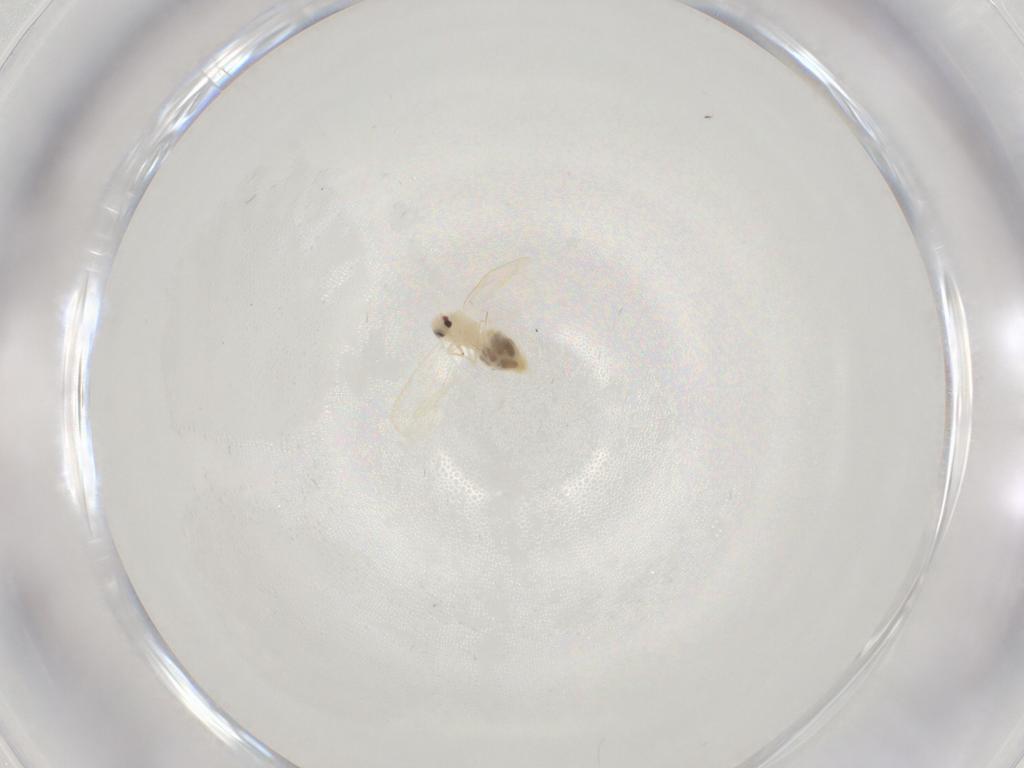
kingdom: Animalia
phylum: Arthropoda
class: Insecta
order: Hemiptera
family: Aleyrodidae
